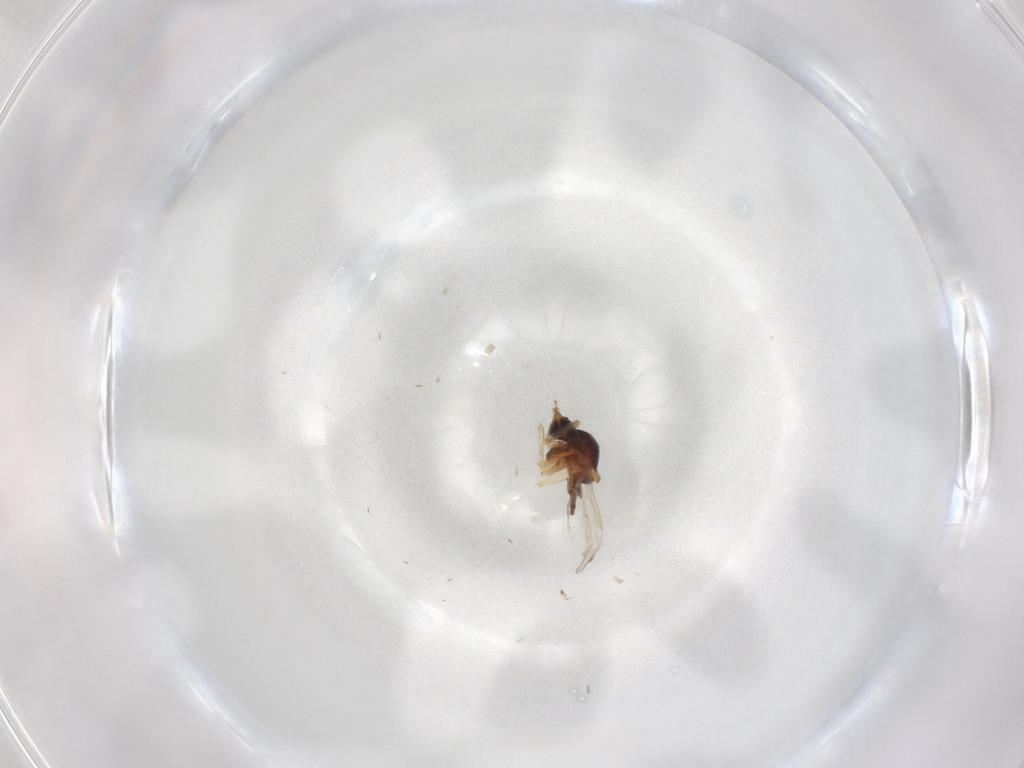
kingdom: Animalia
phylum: Arthropoda
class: Insecta
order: Diptera
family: Ceratopogonidae
